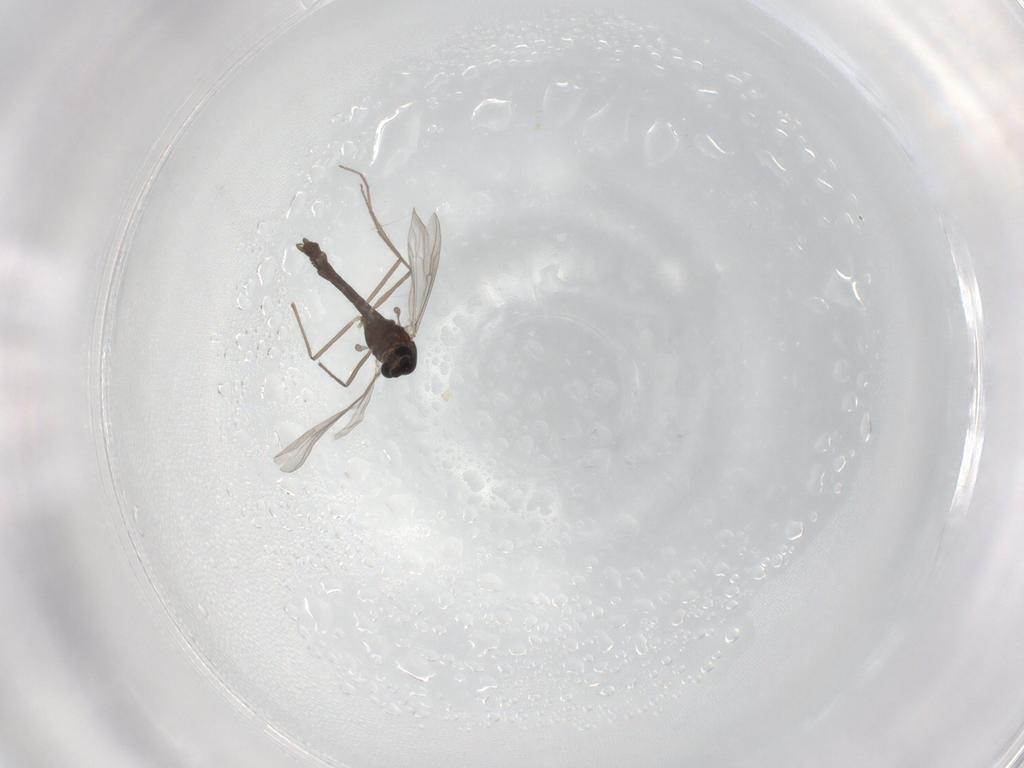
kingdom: Animalia
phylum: Arthropoda
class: Insecta
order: Diptera
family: Chironomidae
